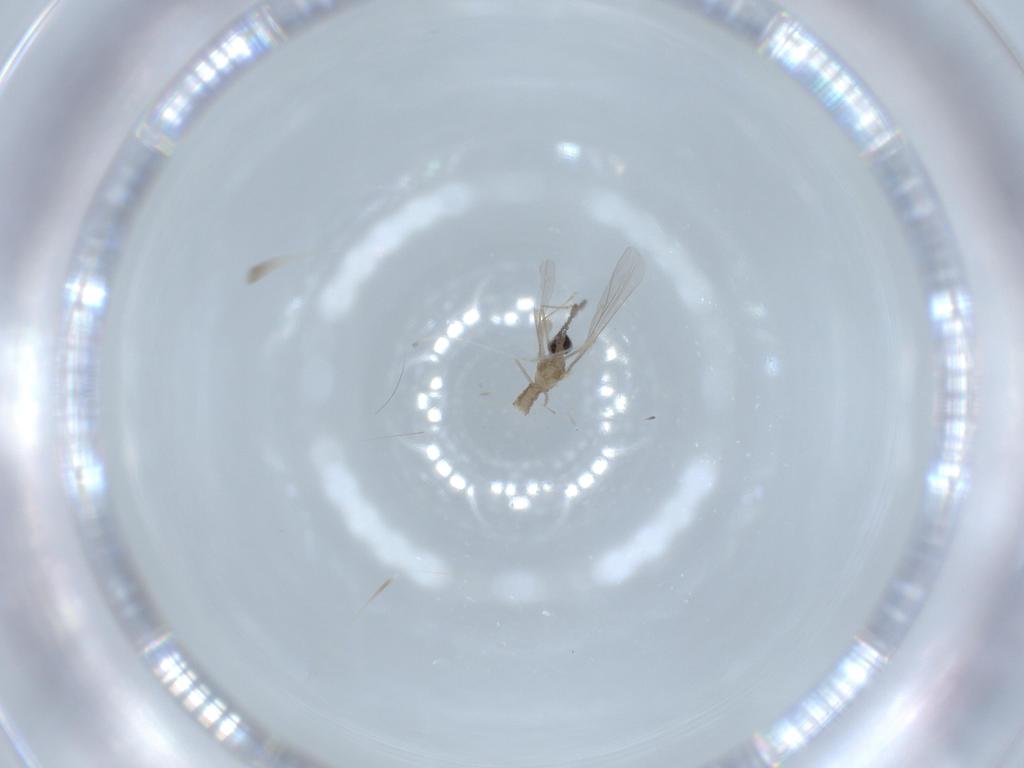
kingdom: Animalia
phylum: Arthropoda
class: Insecta
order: Diptera
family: Cecidomyiidae
